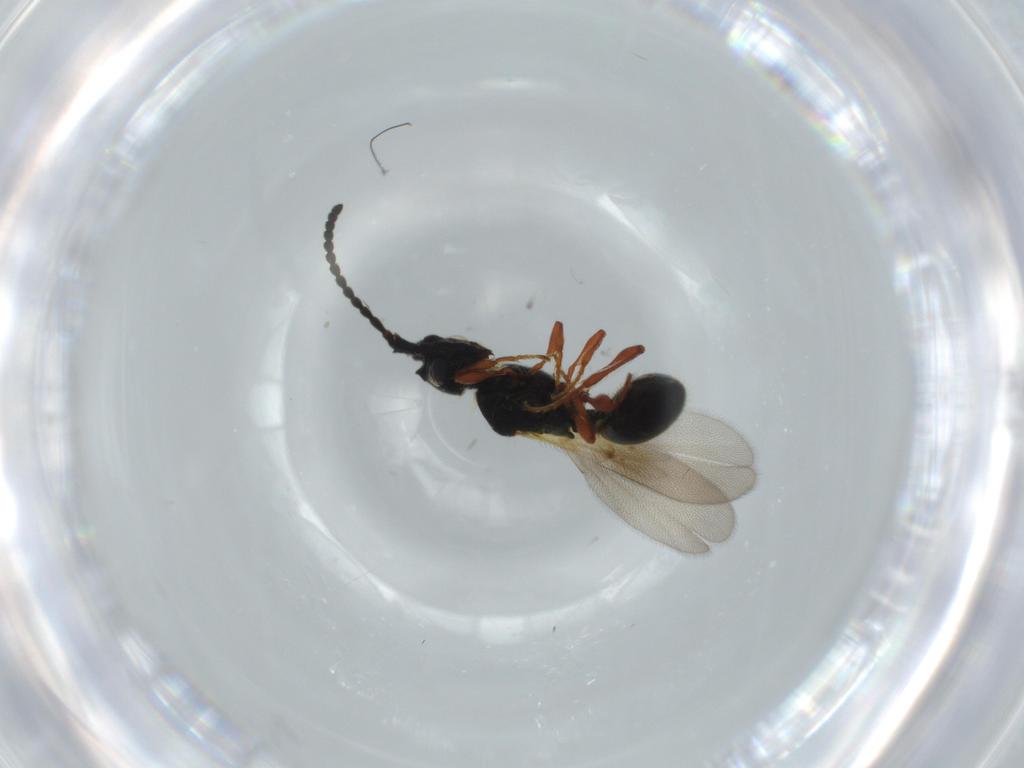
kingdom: Animalia
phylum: Arthropoda
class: Insecta
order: Hymenoptera
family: Diapriidae
